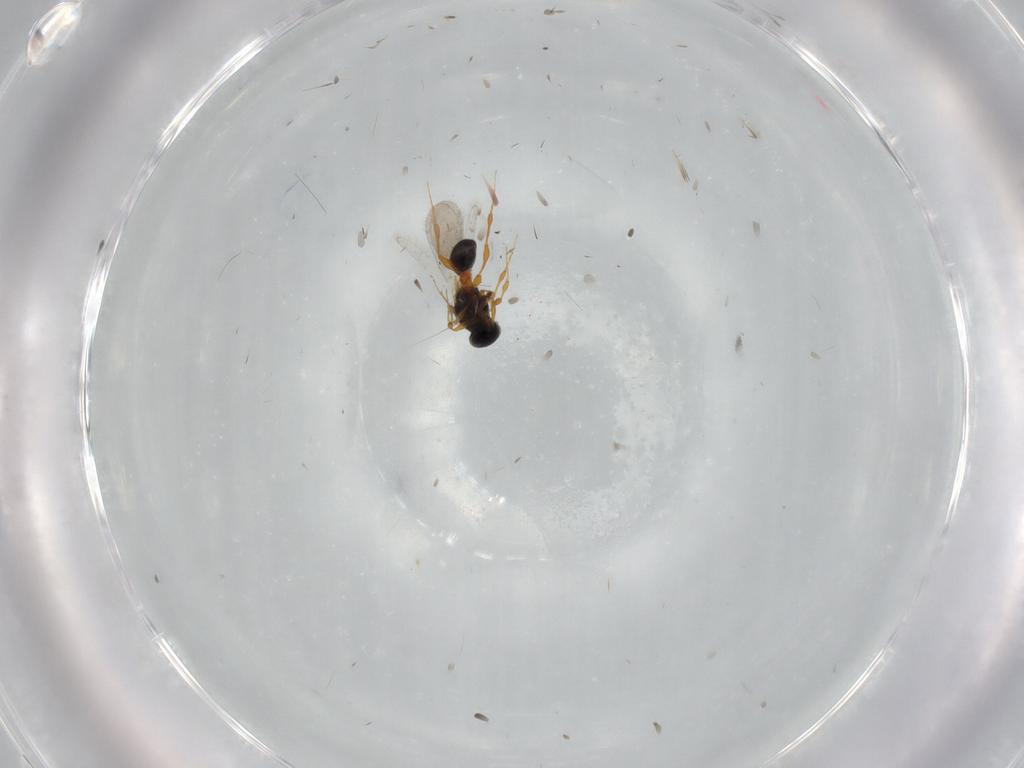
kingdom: Animalia
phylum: Arthropoda
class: Insecta
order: Hymenoptera
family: Platygastridae
